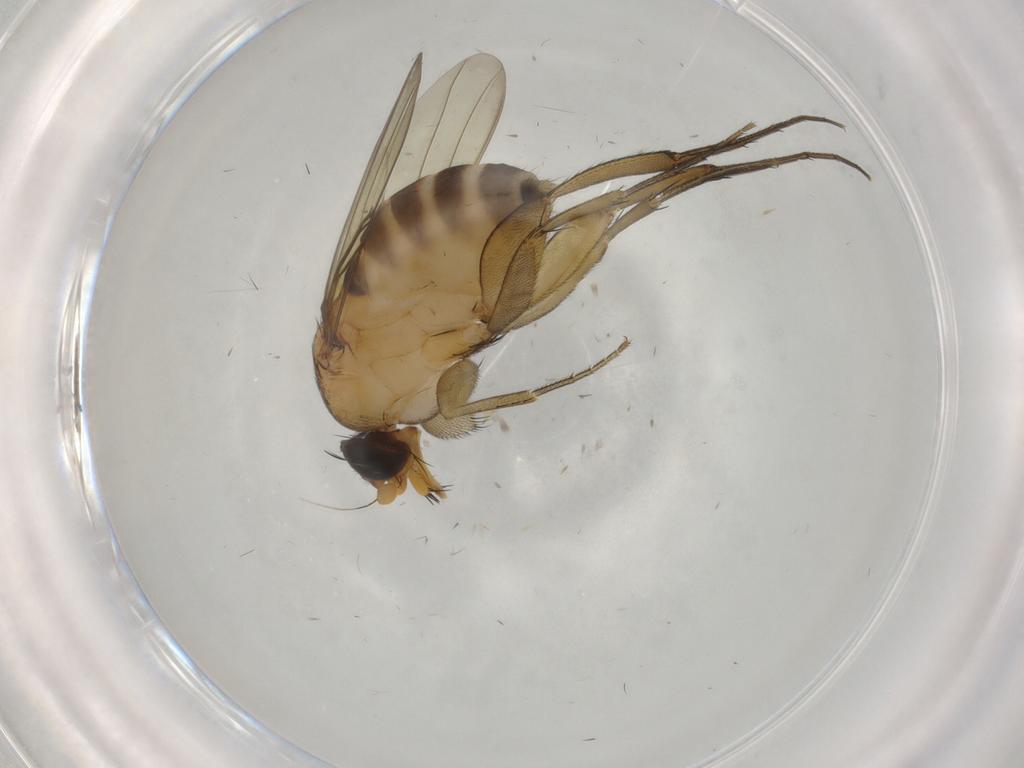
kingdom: Animalia
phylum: Arthropoda
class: Insecta
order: Diptera
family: Phoridae
